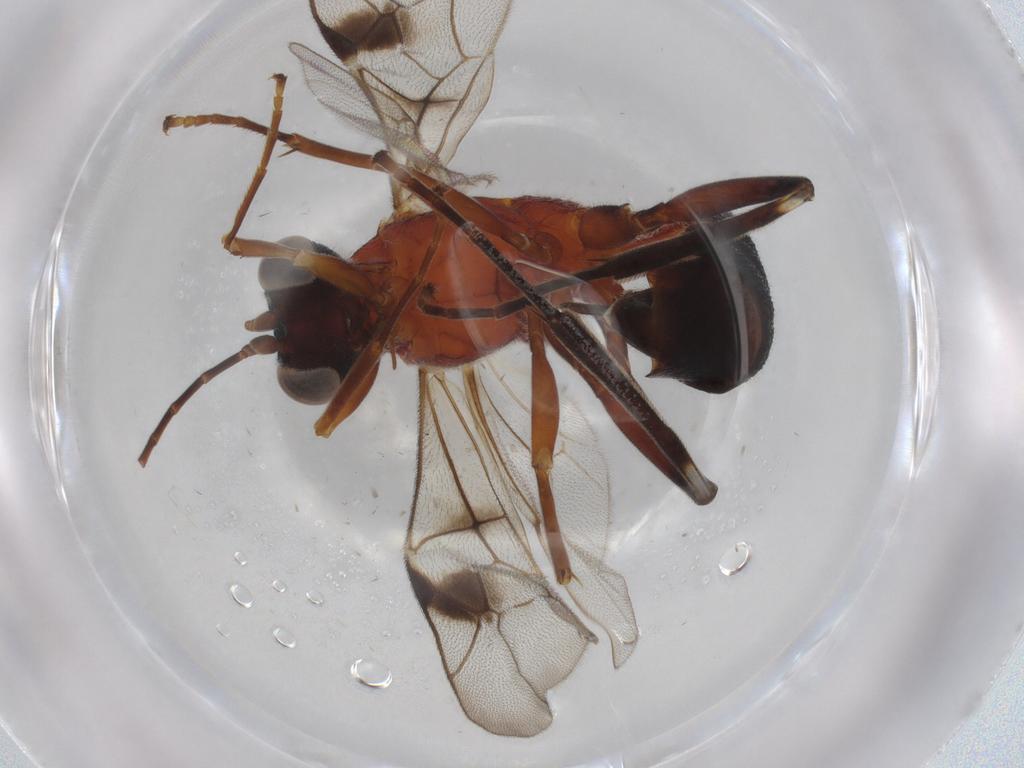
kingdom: Animalia
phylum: Arthropoda
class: Insecta
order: Hymenoptera
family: Ichneumonidae
